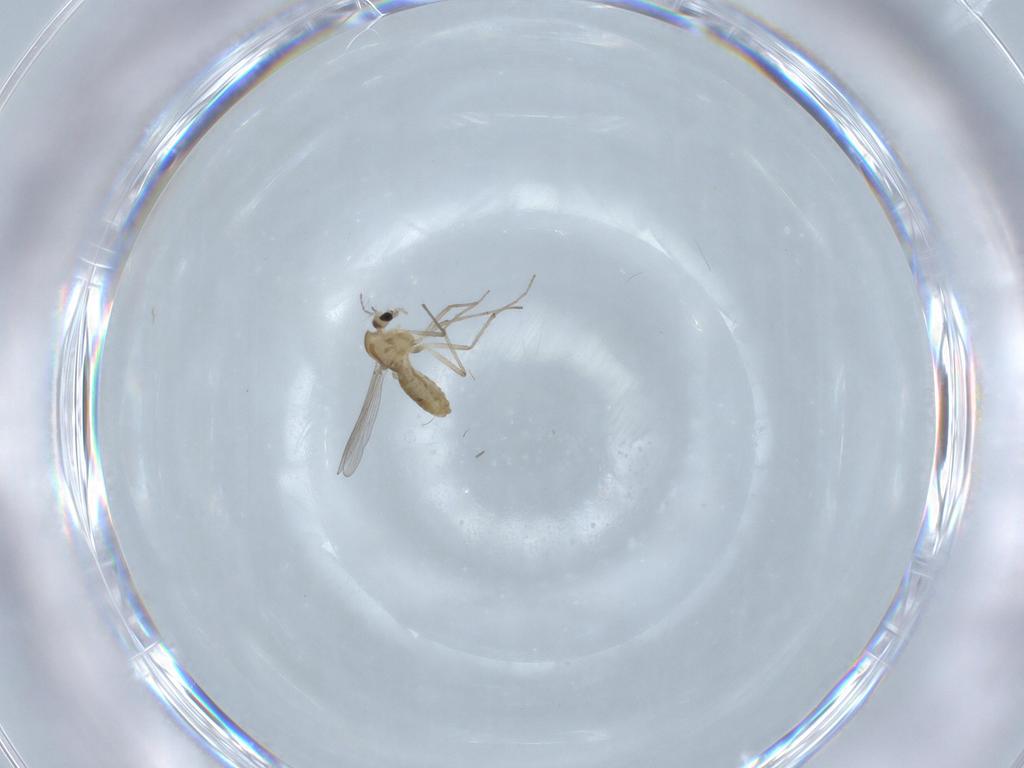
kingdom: Animalia
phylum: Arthropoda
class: Insecta
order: Diptera
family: Chironomidae
